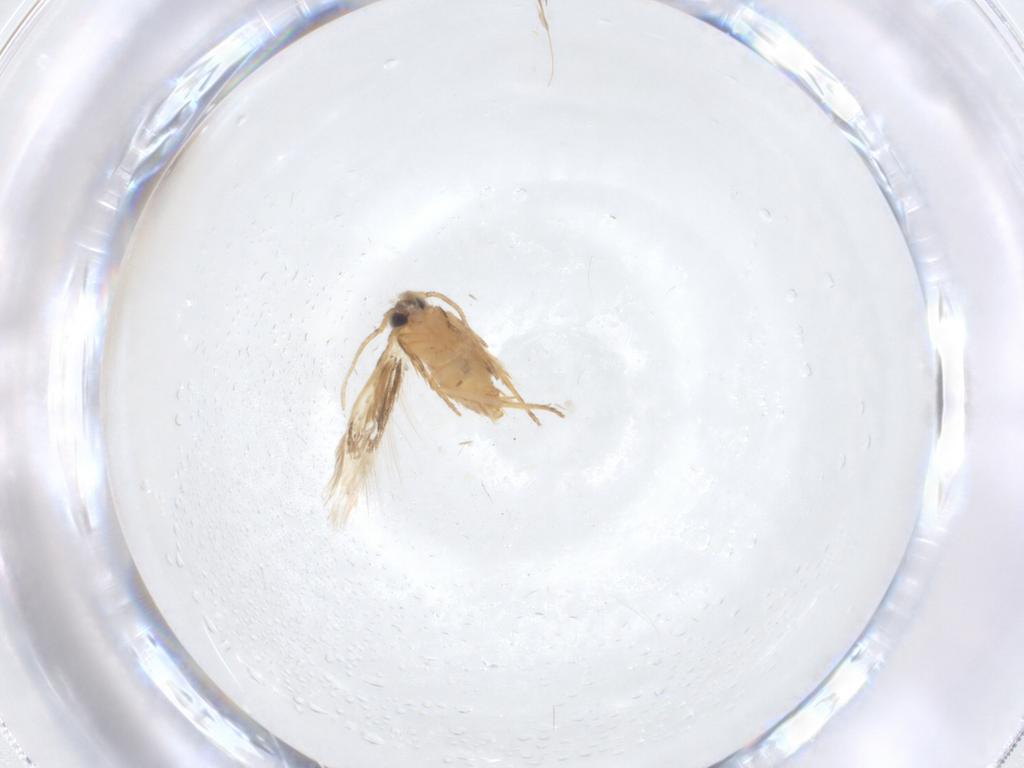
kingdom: Animalia
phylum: Arthropoda
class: Insecta
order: Lepidoptera
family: Nepticulidae
